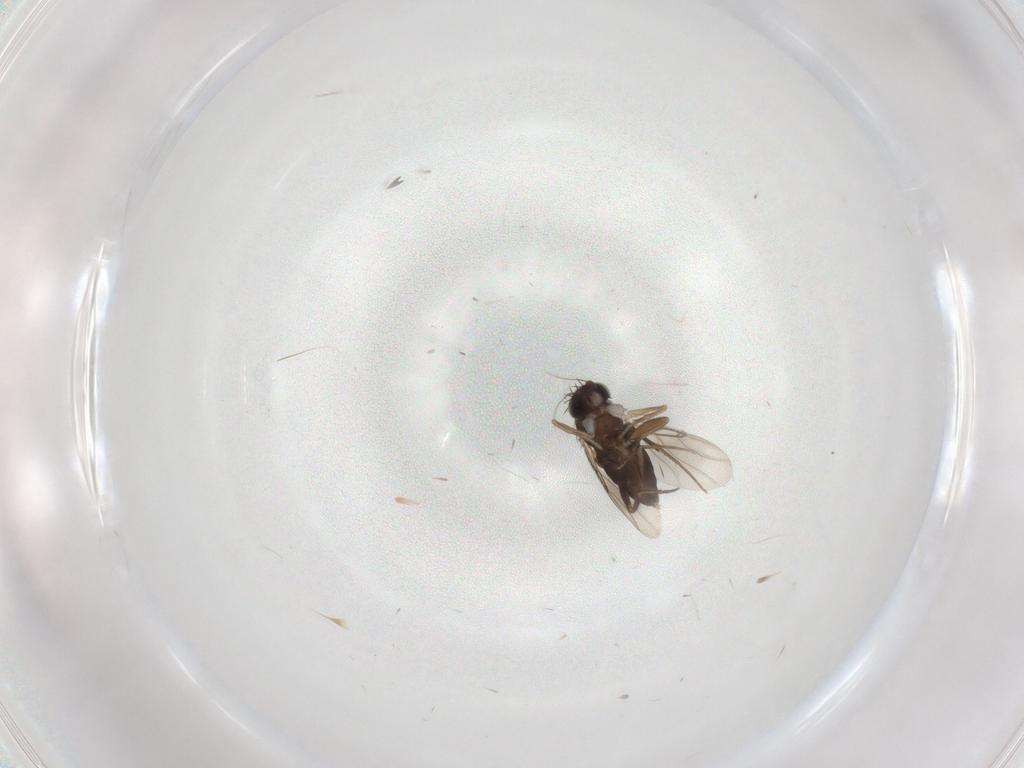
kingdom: Animalia
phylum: Arthropoda
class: Insecta
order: Diptera
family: Phoridae
